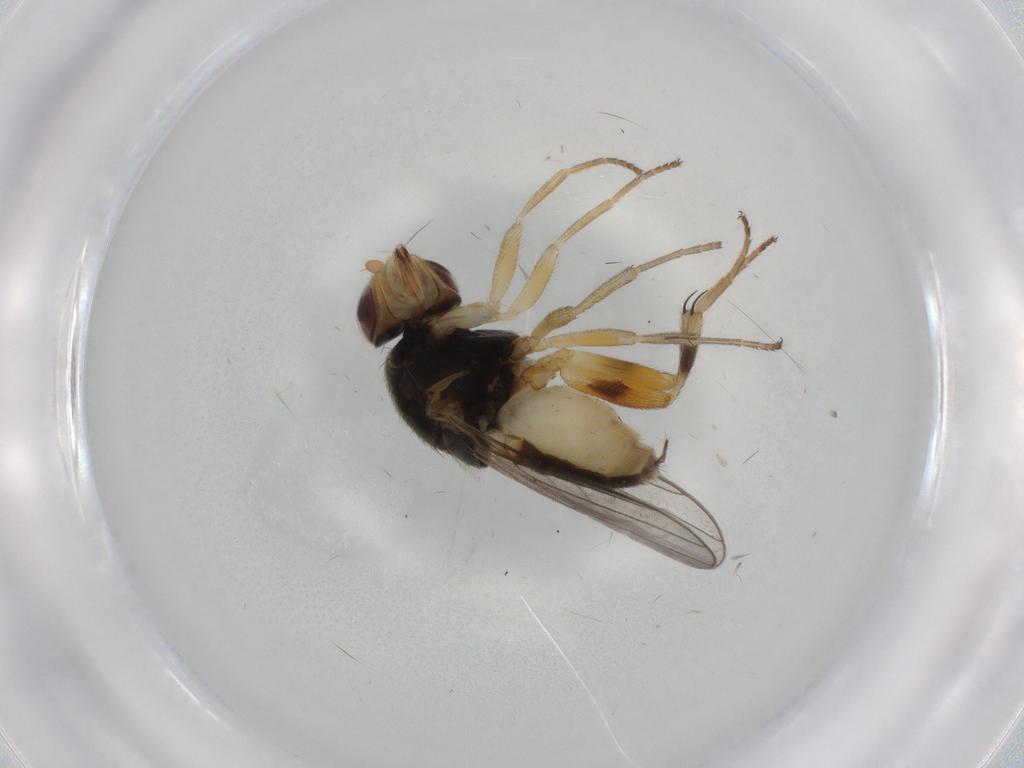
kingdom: Animalia
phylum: Arthropoda
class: Insecta
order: Diptera
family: Chloropidae
